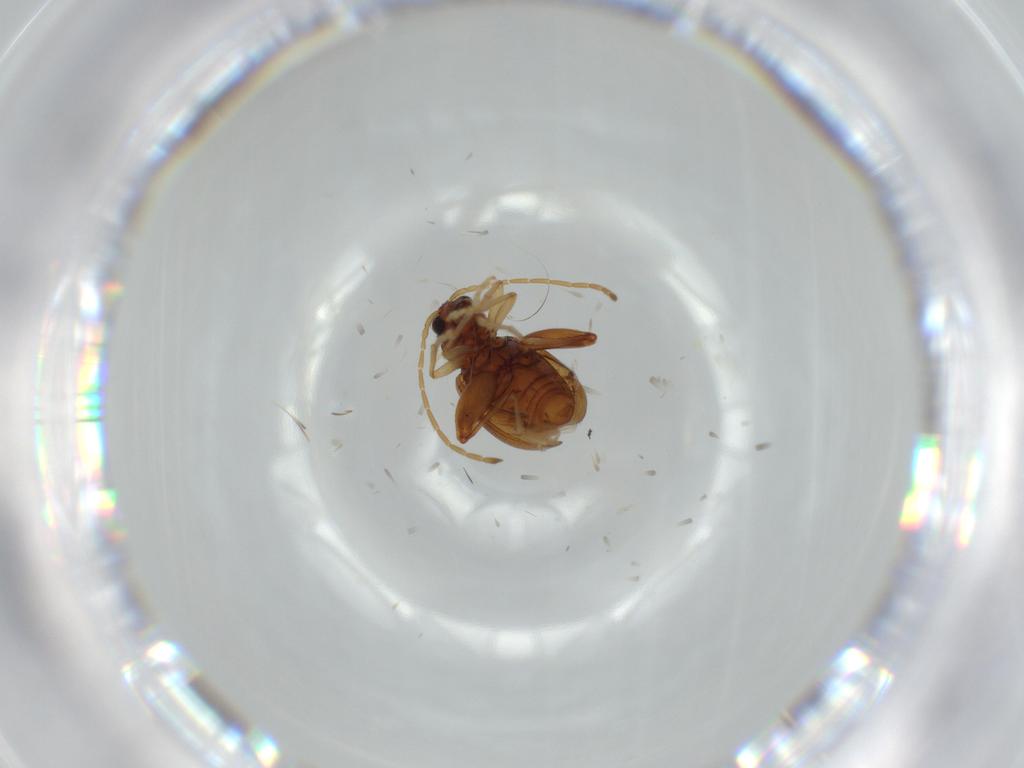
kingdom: Animalia
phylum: Arthropoda
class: Insecta
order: Coleoptera
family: Chrysomelidae
